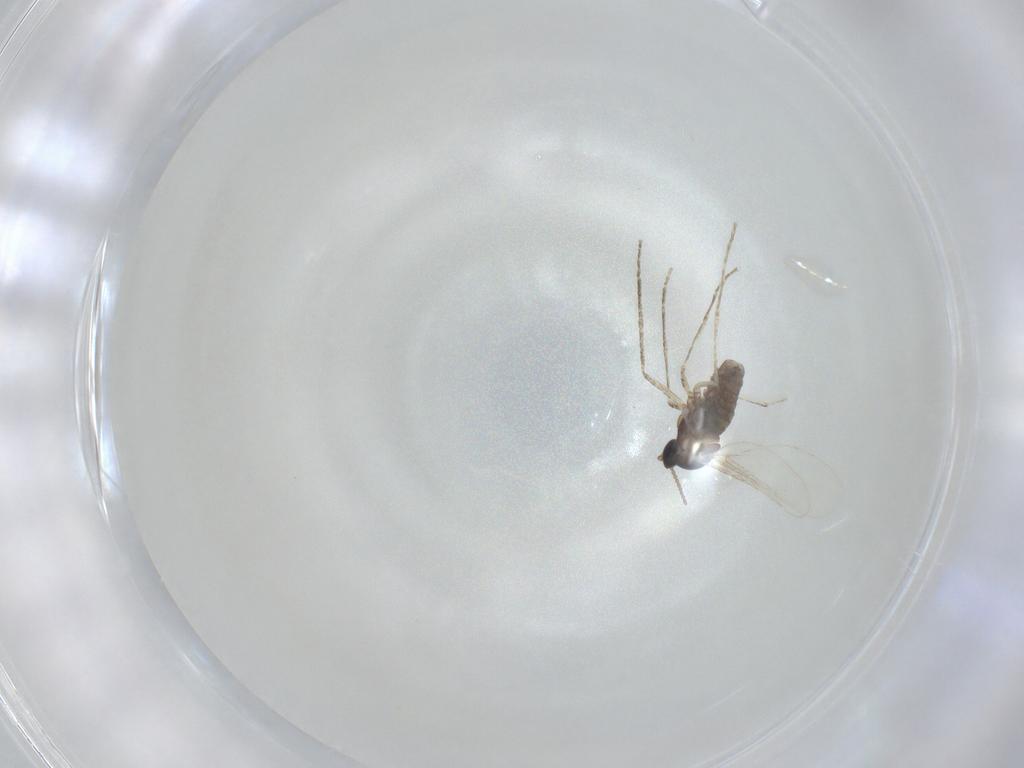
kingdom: Animalia
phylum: Arthropoda
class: Insecta
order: Diptera
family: Cecidomyiidae
